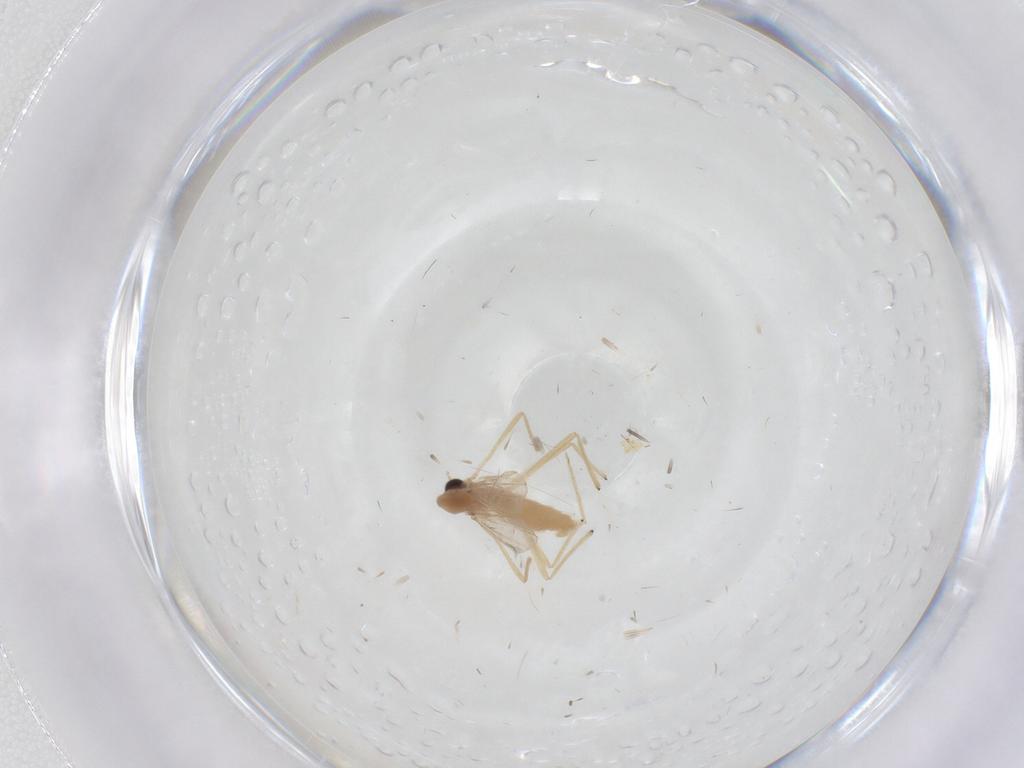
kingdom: Animalia
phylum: Arthropoda
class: Insecta
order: Diptera
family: Chironomidae
